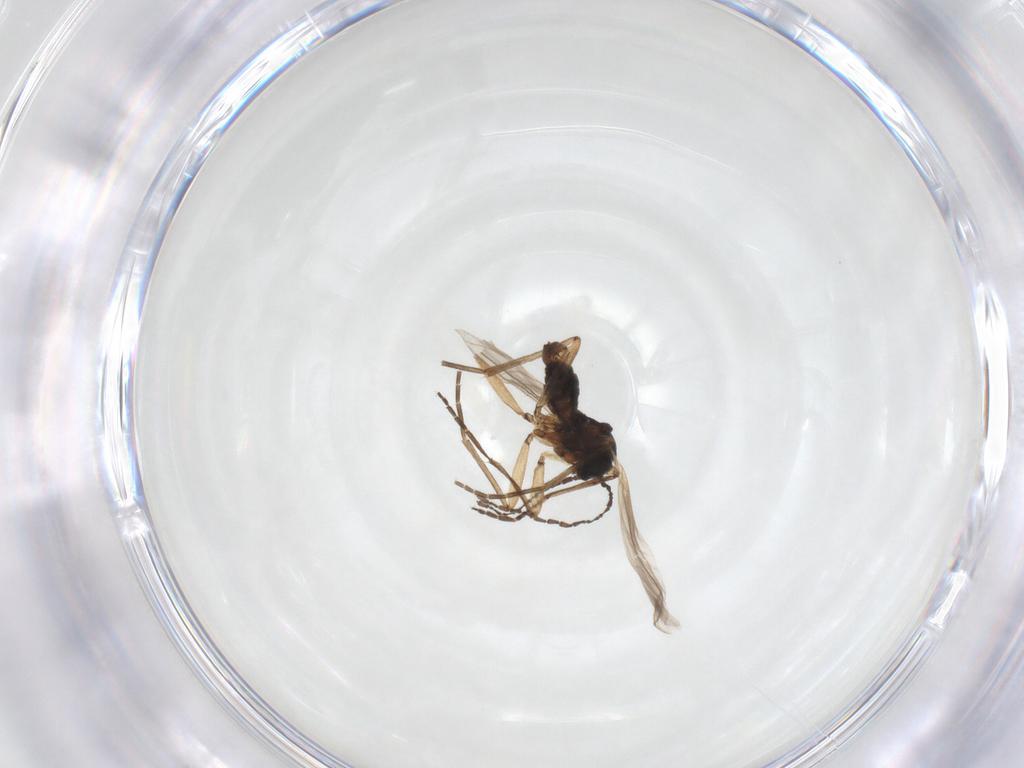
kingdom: Animalia
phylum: Arthropoda
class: Insecta
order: Diptera
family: Sciaridae
